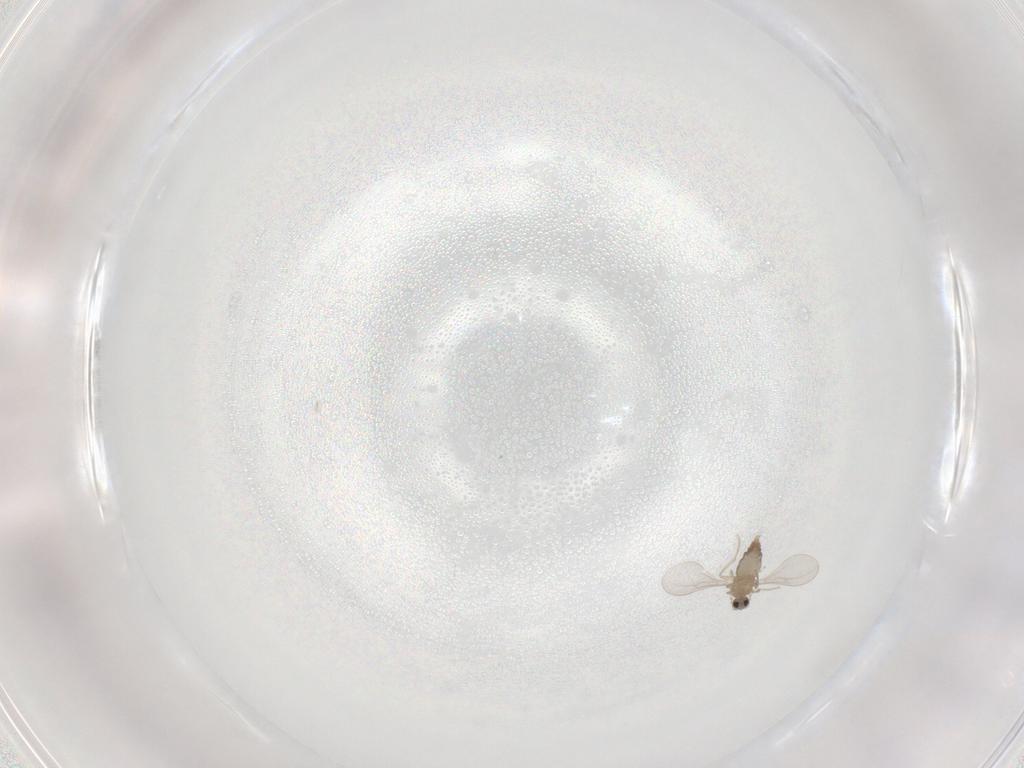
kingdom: Animalia
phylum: Arthropoda
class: Insecta
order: Diptera
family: Cecidomyiidae
